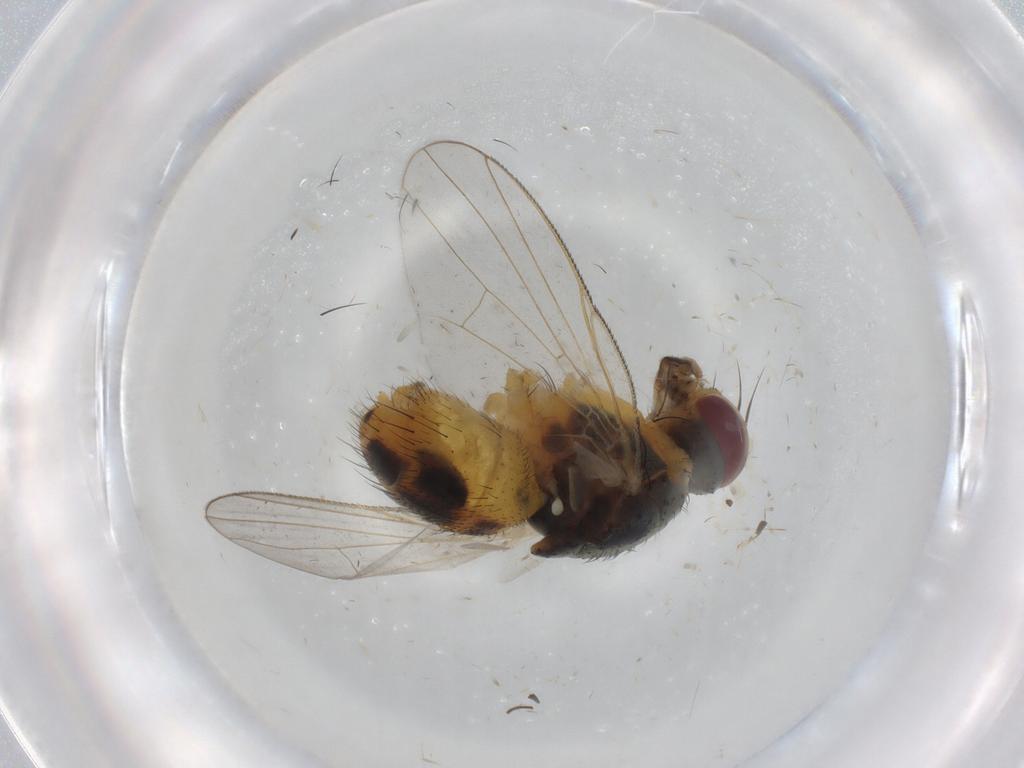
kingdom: Animalia
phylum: Arthropoda
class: Insecta
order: Diptera
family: Muscidae
